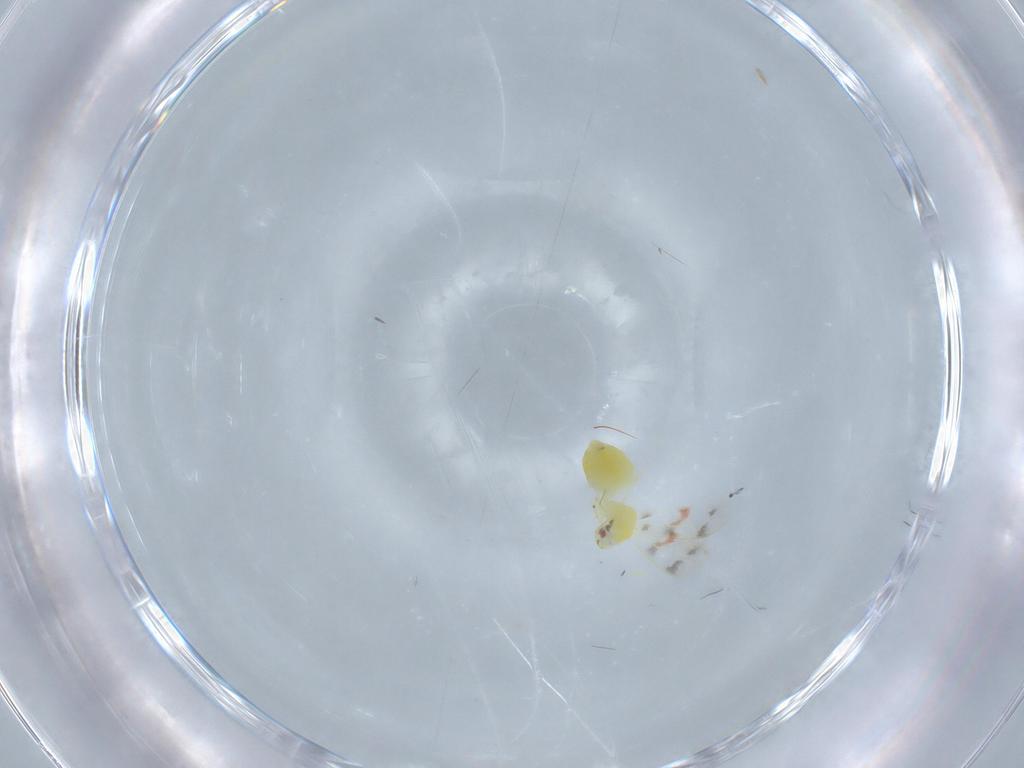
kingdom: Animalia
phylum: Arthropoda
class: Insecta
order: Hemiptera
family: Aleyrodidae
